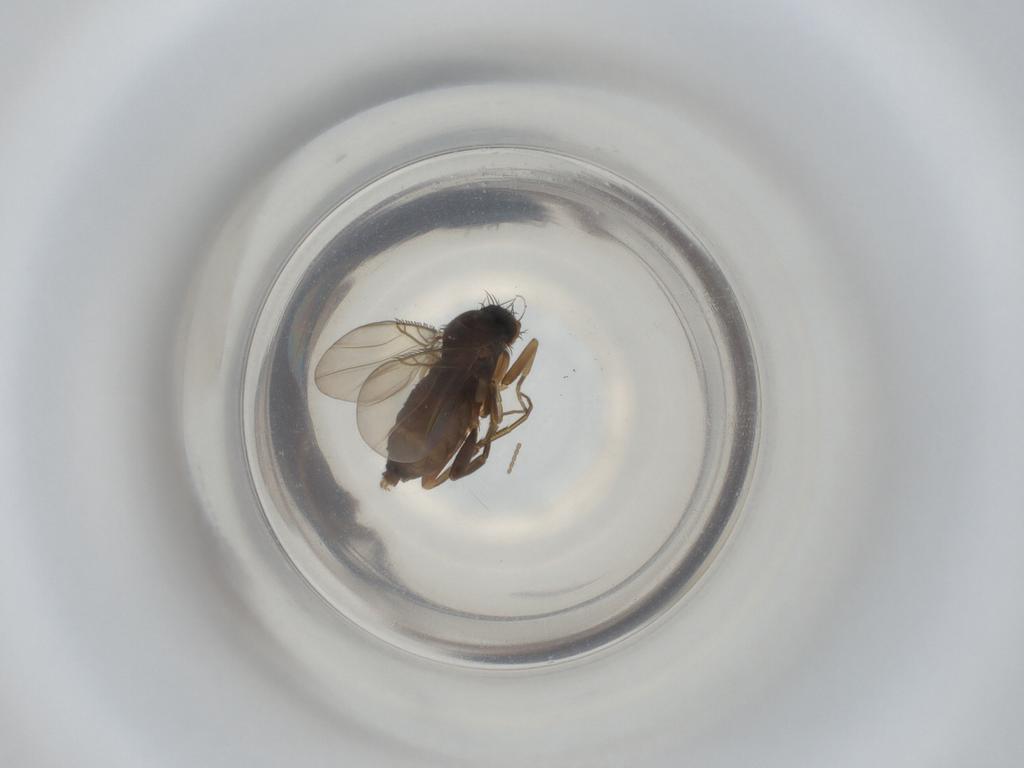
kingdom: Animalia
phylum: Arthropoda
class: Insecta
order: Diptera
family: Phoridae
